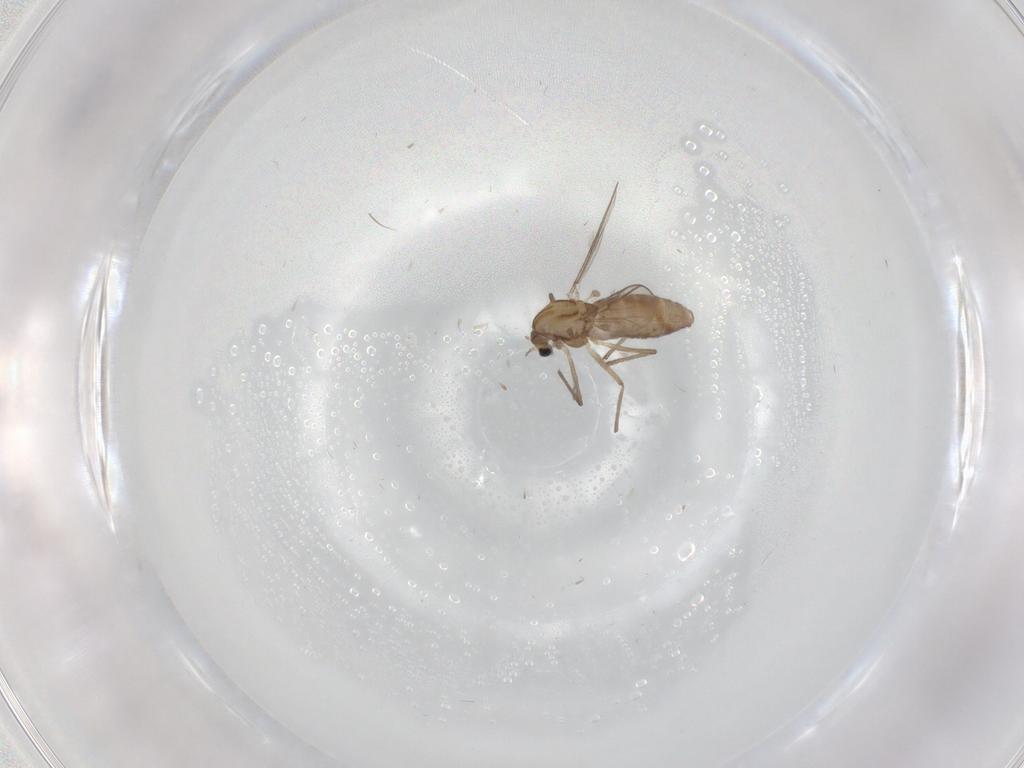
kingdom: Animalia
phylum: Arthropoda
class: Insecta
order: Diptera
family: Chironomidae
